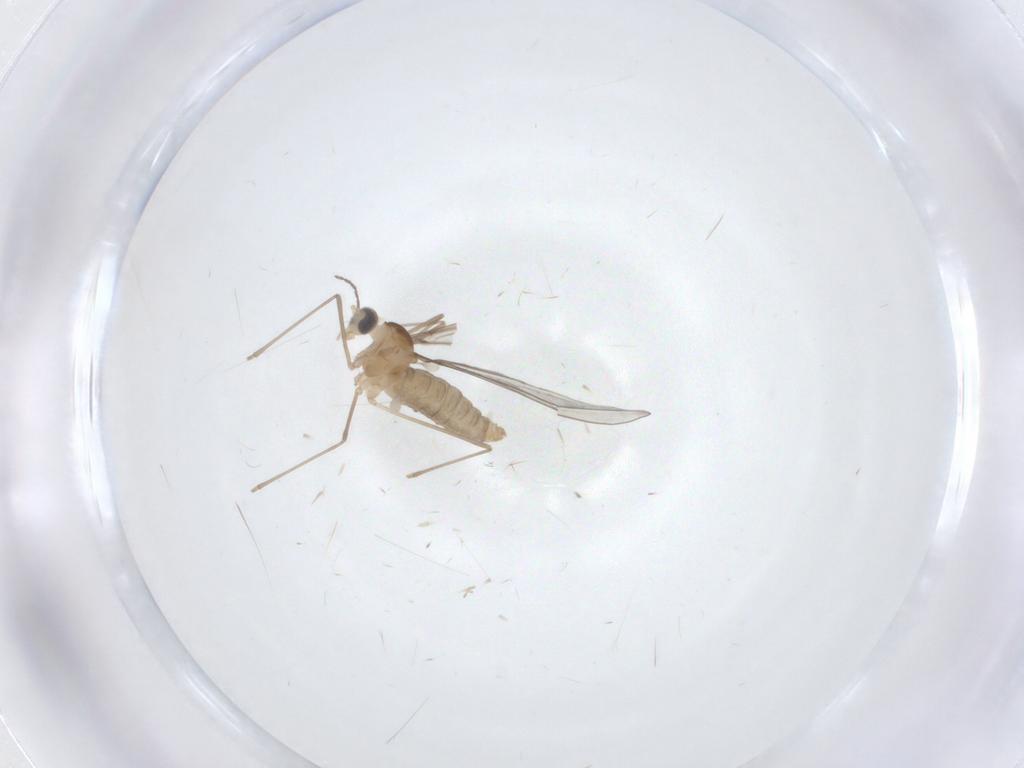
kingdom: Animalia
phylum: Arthropoda
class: Insecta
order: Diptera
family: Cecidomyiidae
